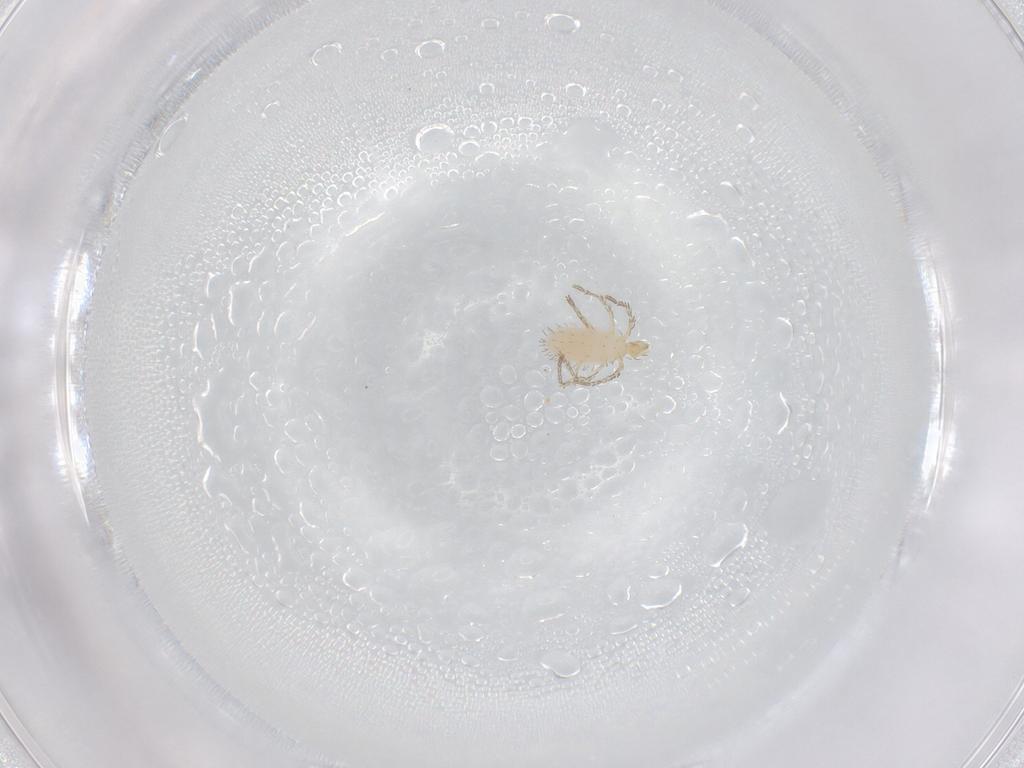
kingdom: Animalia
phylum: Arthropoda
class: Arachnida
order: Trombidiformes
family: Erythraeidae
